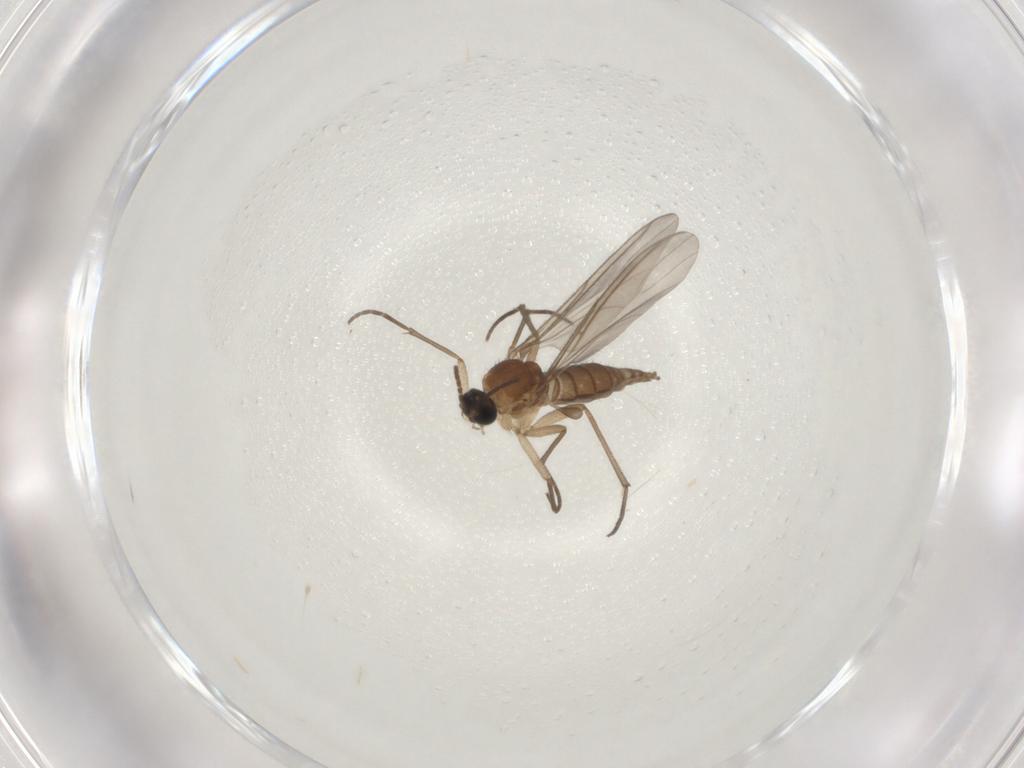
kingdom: Animalia
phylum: Arthropoda
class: Insecta
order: Diptera
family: Sciaridae
